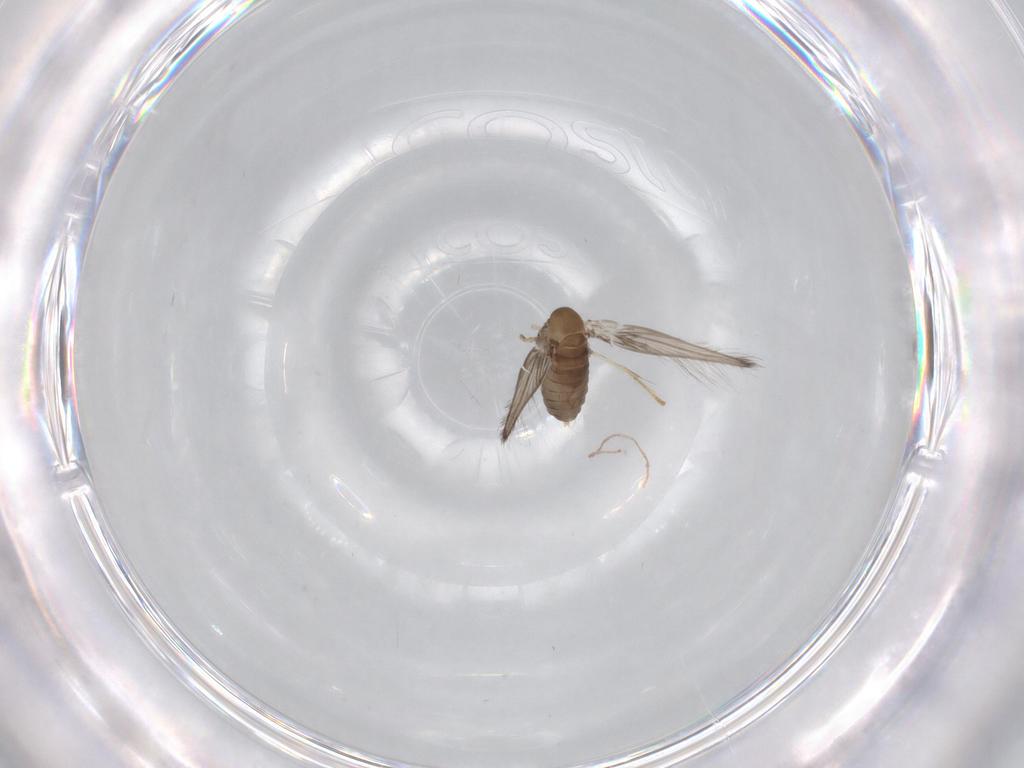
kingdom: Animalia
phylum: Arthropoda
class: Insecta
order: Diptera
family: Psychodidae
